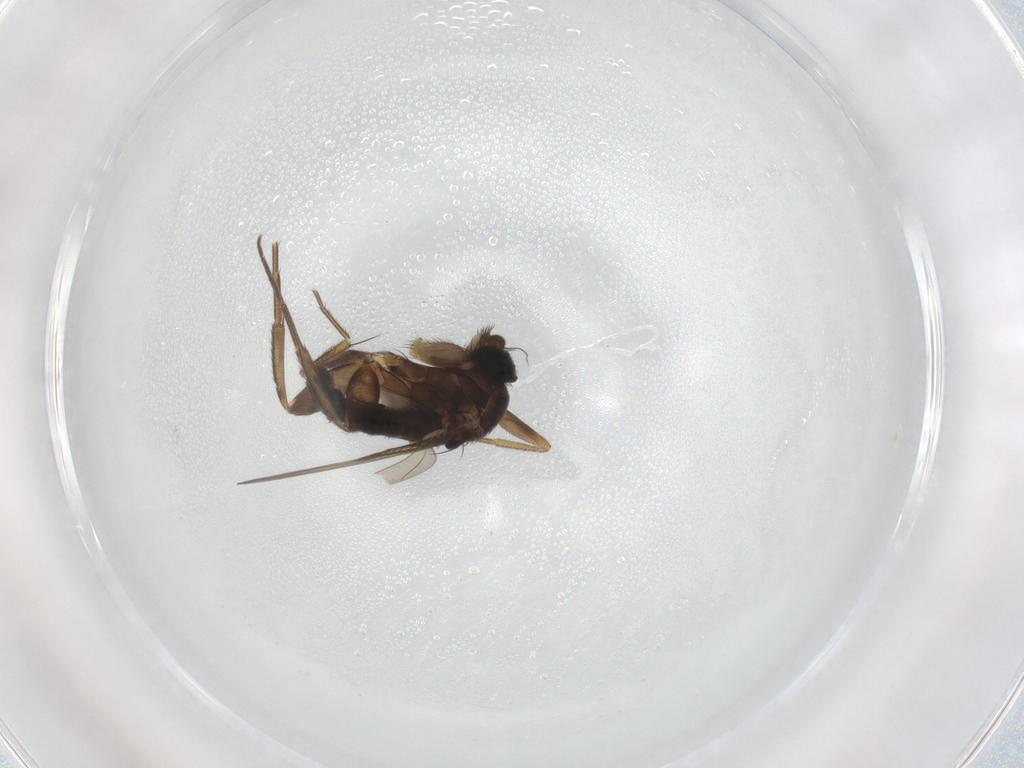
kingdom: Animalia
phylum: Arthropoda
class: Insecta
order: Diptera
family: Phoridae
